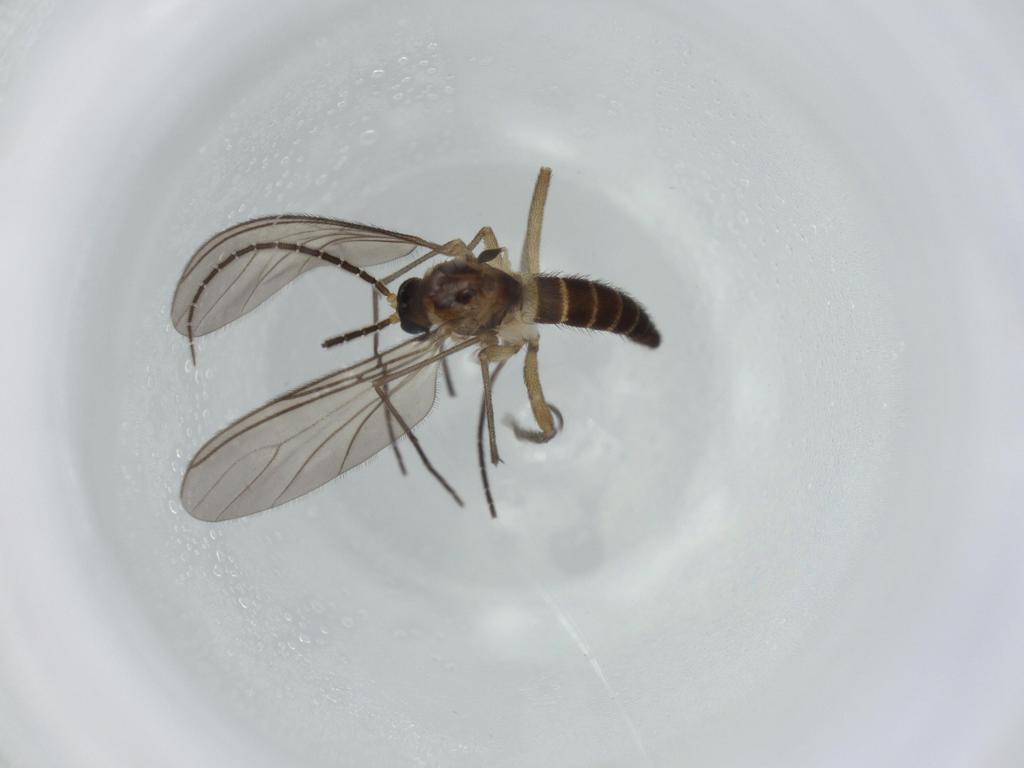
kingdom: Animalia
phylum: Arthropoda
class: Insecta
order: Diptera
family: Sciaridae
